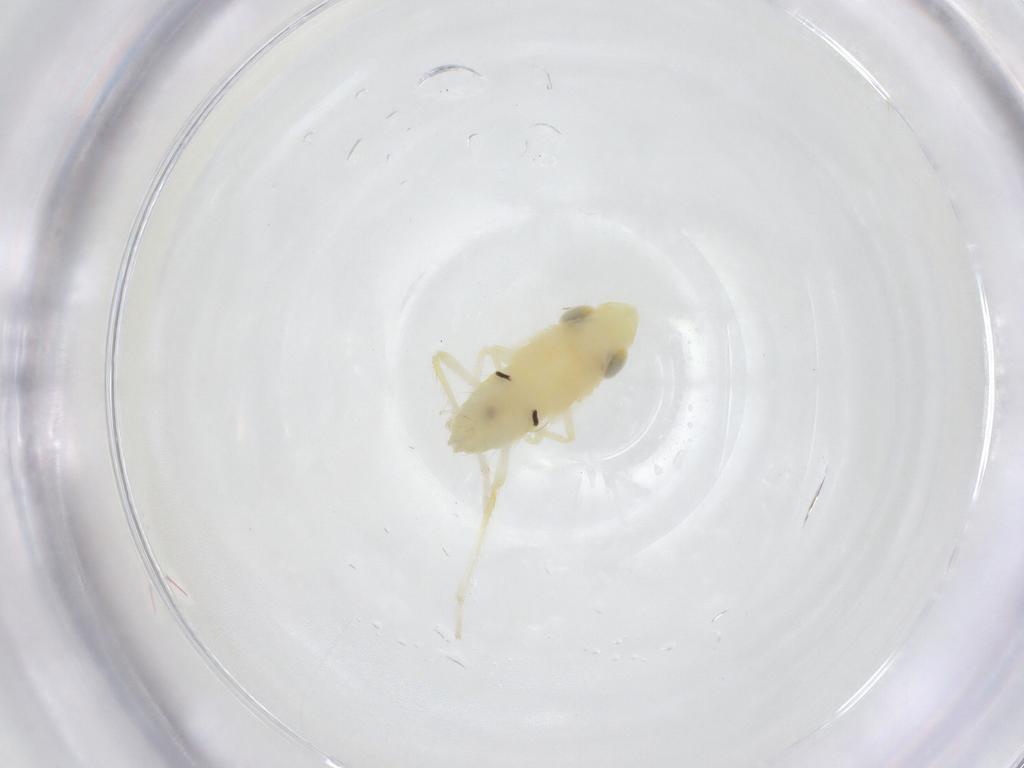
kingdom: Animalia
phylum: Arthropoda
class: Insecta
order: Hemiptera
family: Cicadellidae
